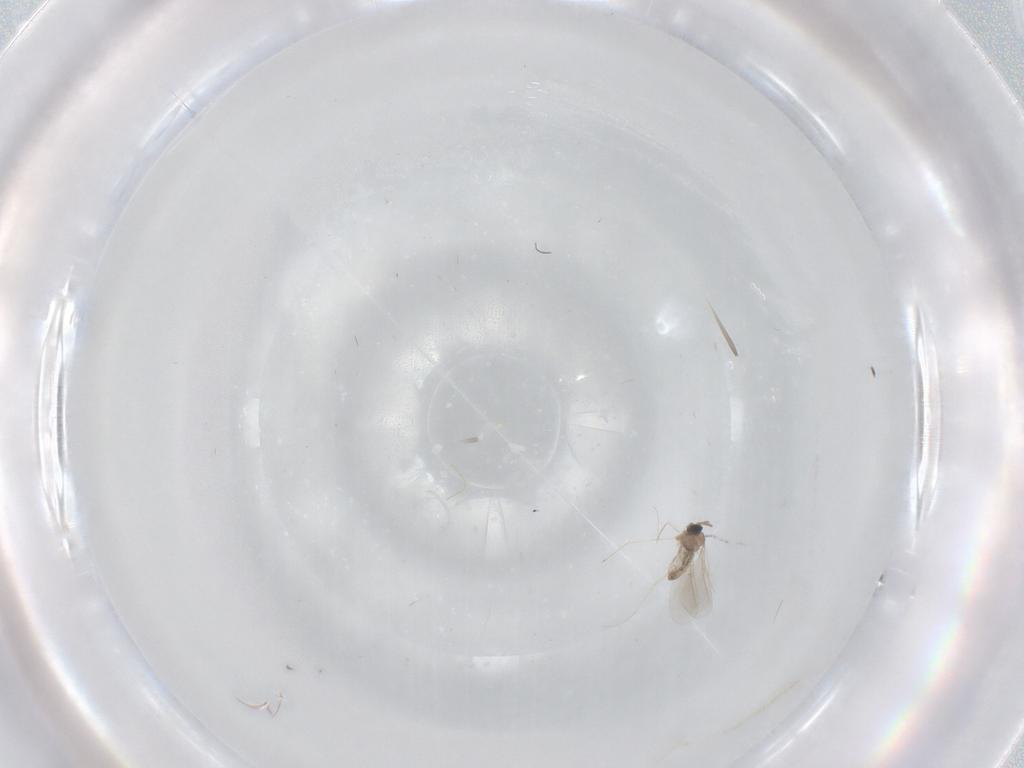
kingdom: Animalia
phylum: Arthropoda
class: Insecta
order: Diptera
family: Cecidomyiidae
